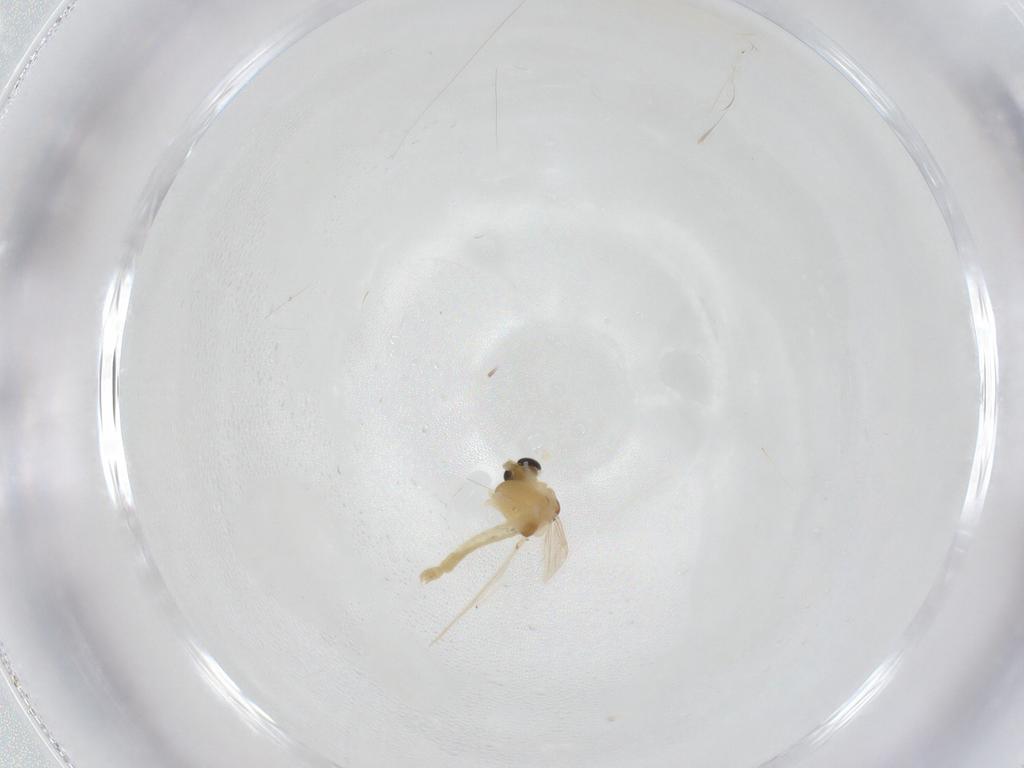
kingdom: Animalia
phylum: Arthropoda
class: Insecta
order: Diptera
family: Chironomidae
